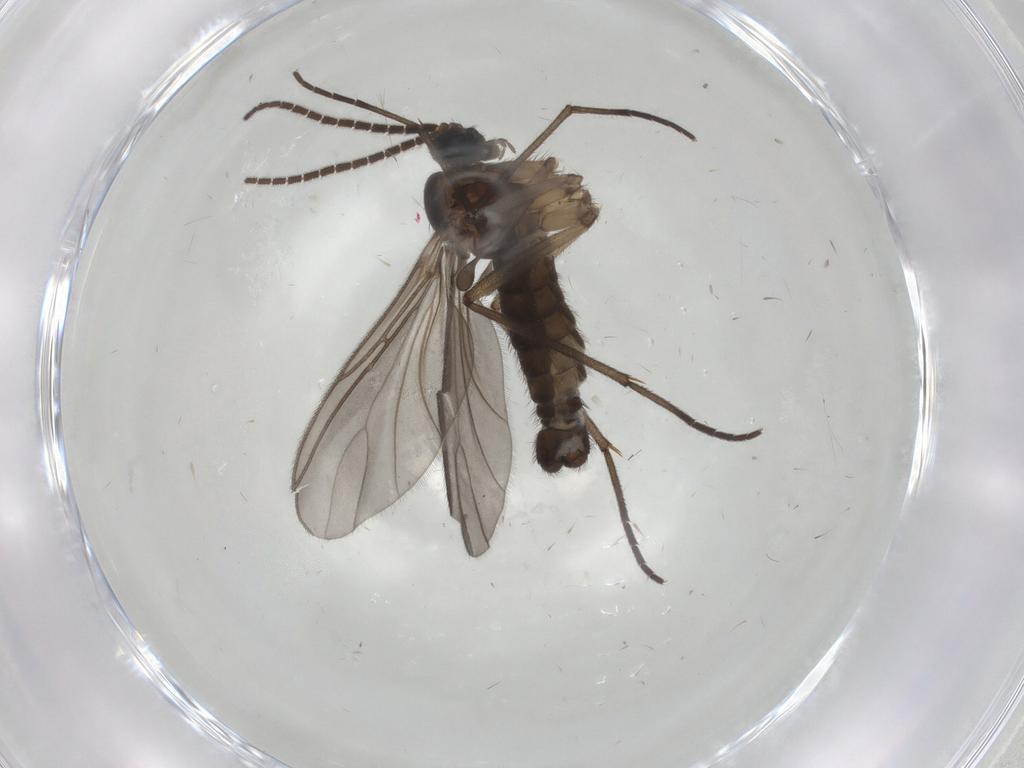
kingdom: Animalia
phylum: Arthropoda
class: Insecta
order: Diptera
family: Sciaridae
